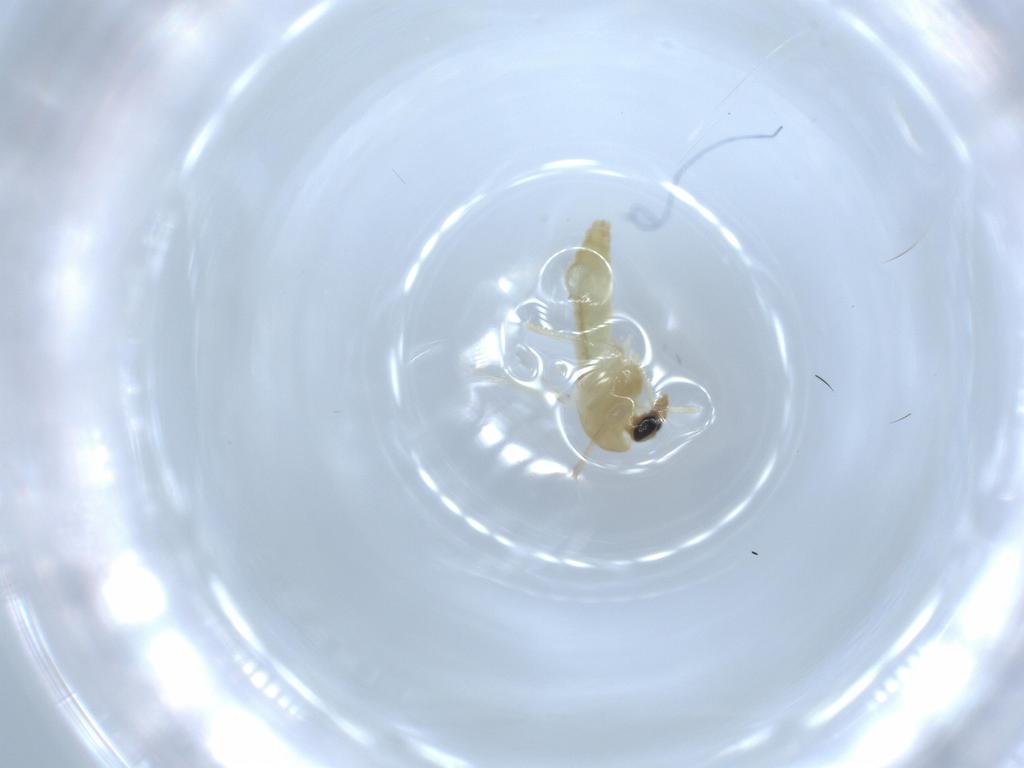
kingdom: Animalia
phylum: Arthropoda
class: Insecta
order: Diptera
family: Chironomidae
